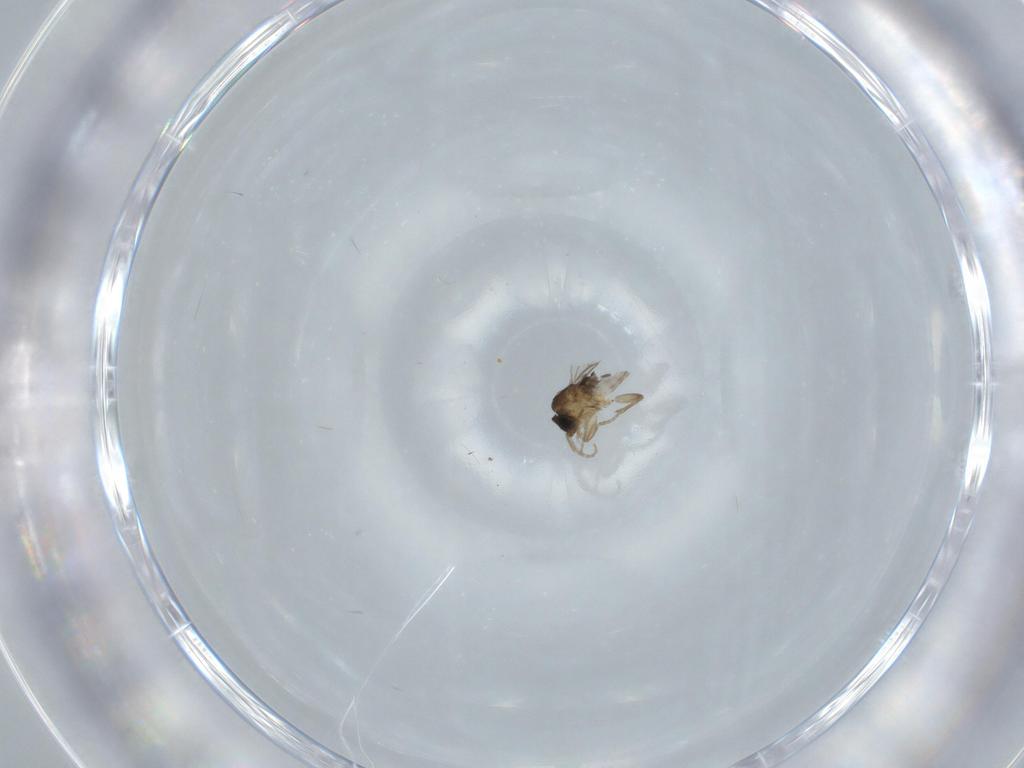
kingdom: Animalia
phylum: Arthropoda
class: Insecta
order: Diptera
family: Phoridae
